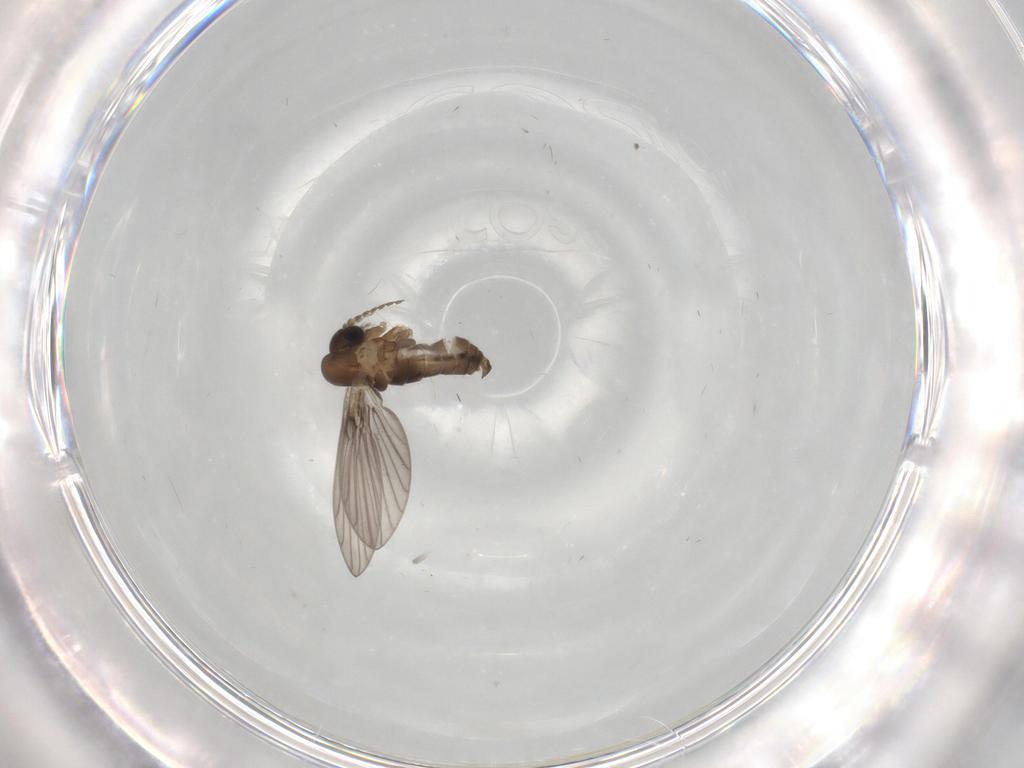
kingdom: Animalia
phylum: Arthropoda
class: Insecta
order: Diptera
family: Psychodidae
